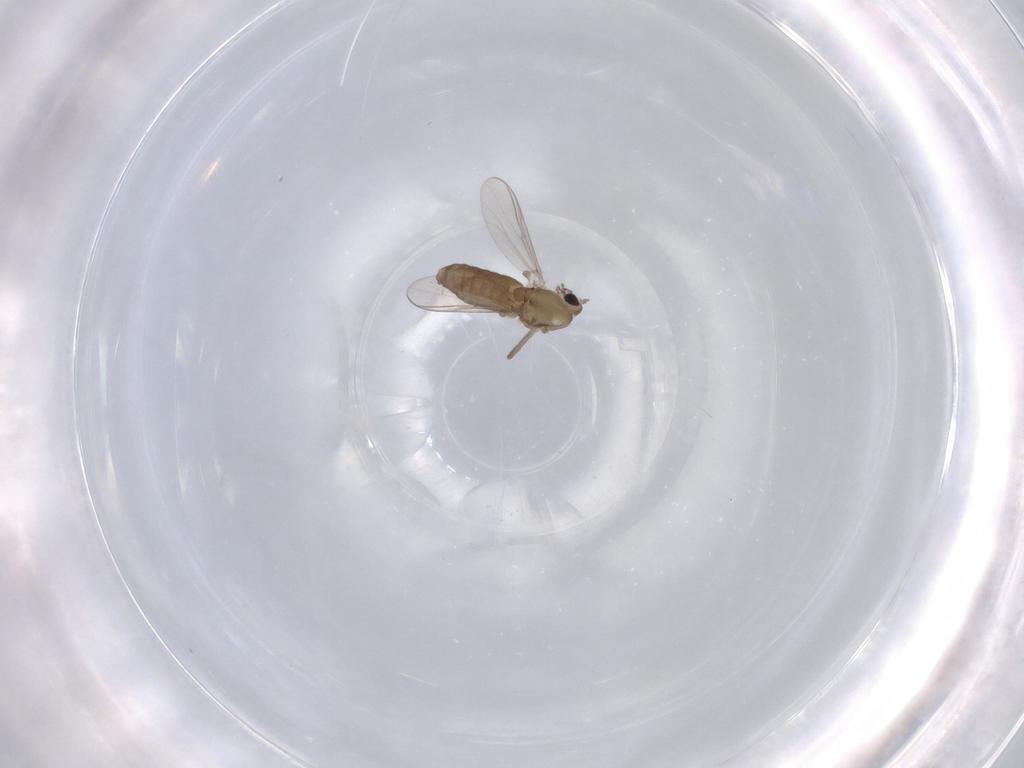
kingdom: Animalia
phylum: Arthropoda
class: Insecta
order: Diptera
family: Chironomidae
